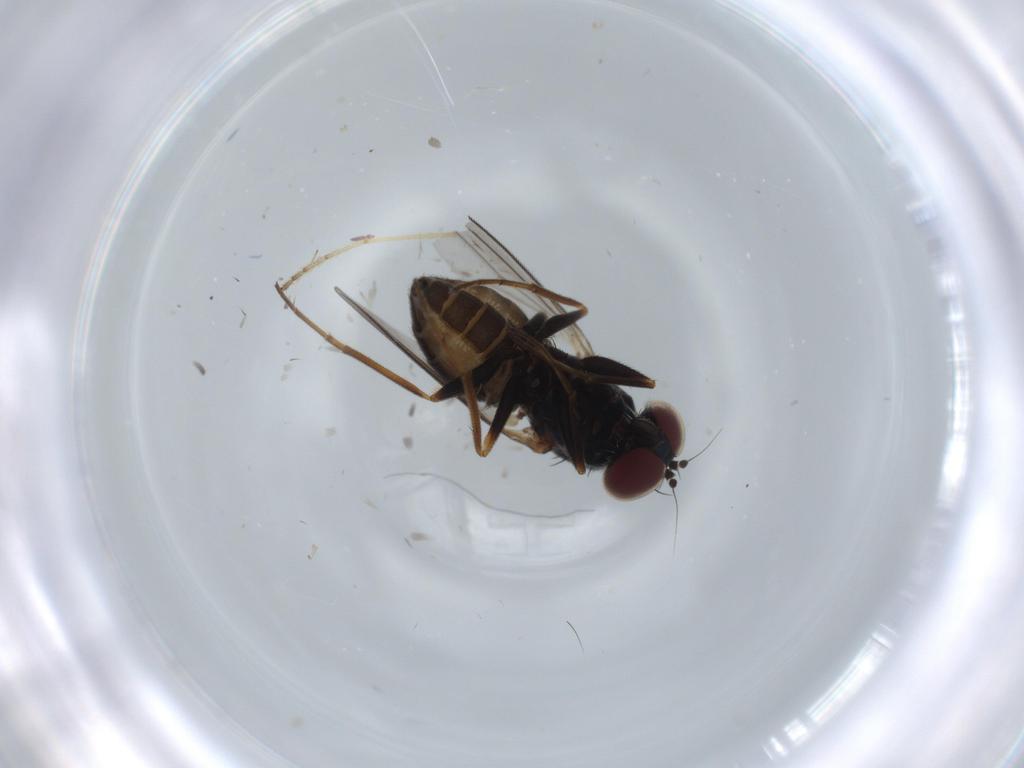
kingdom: Animalia
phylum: Arthropoda
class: Insecta
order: Diptera
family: Dolichopodidae
